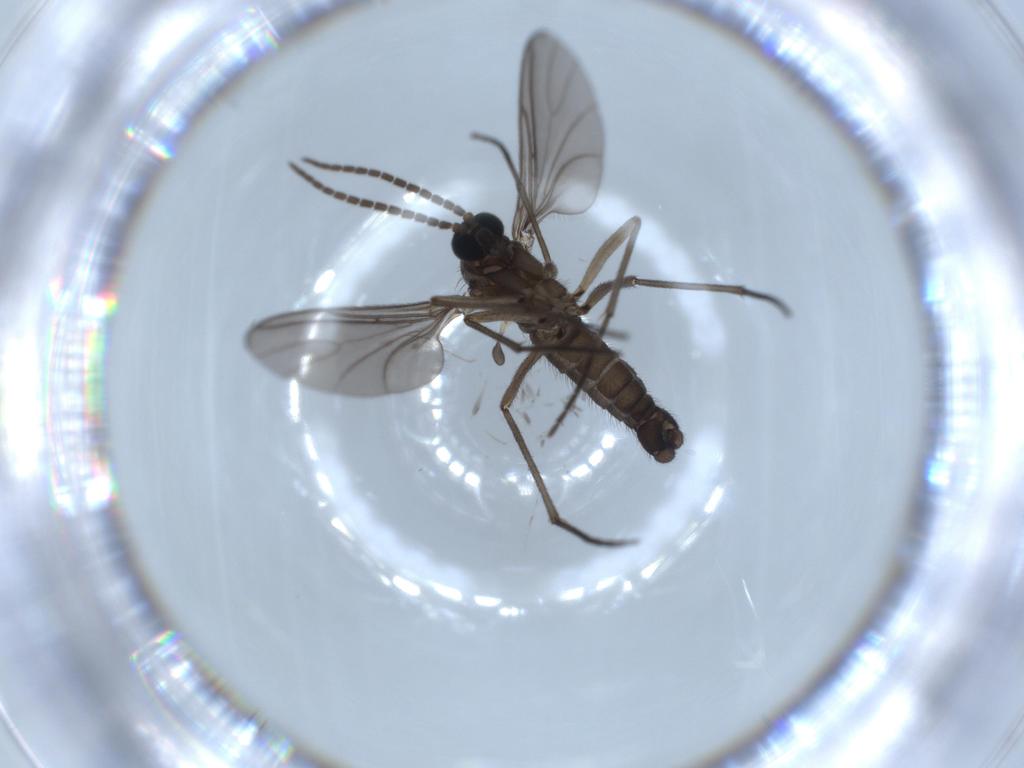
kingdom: Animalia
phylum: Arthropoda
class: Insecta
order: Diptera
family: Sciaridae
